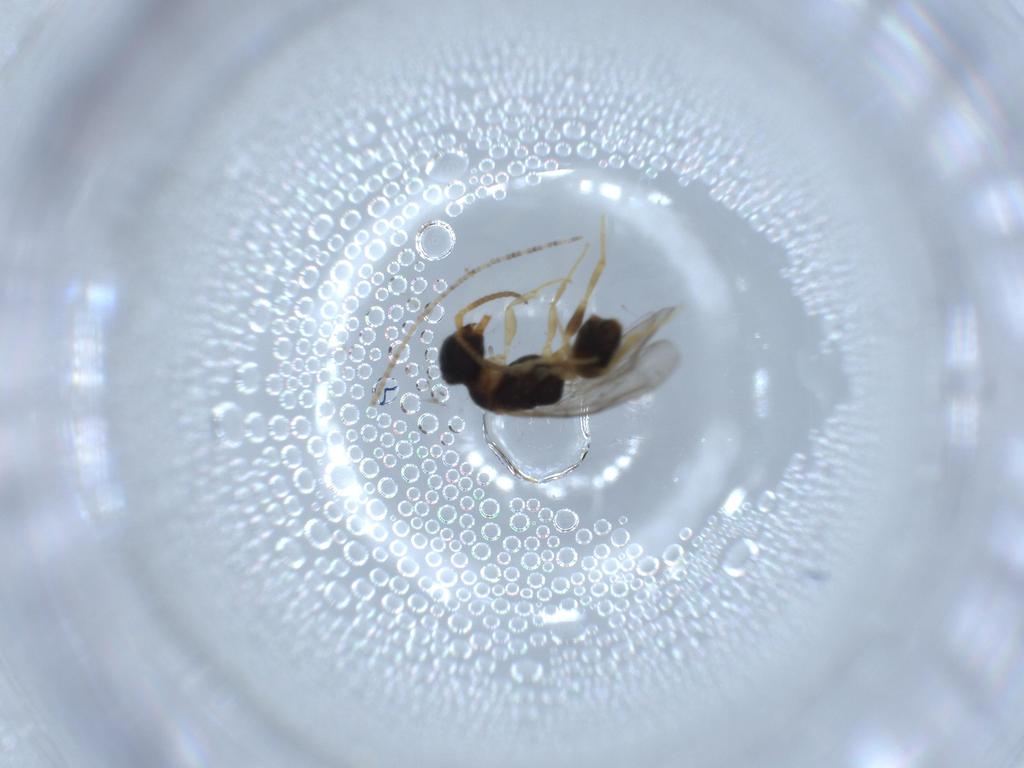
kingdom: Animalia
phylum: Arthropoda
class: Insecta
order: Hymenoptera
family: Bethylidae
